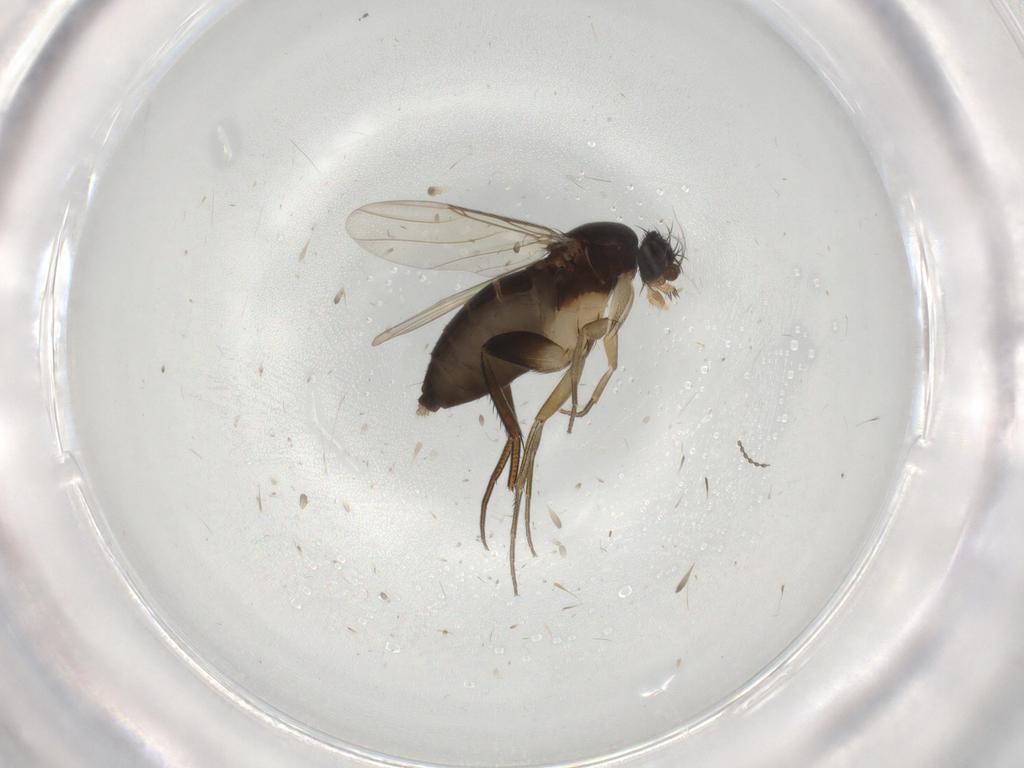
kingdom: Animalia
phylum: Arthropoda
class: Insecta
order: Diptera
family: Phoridae
